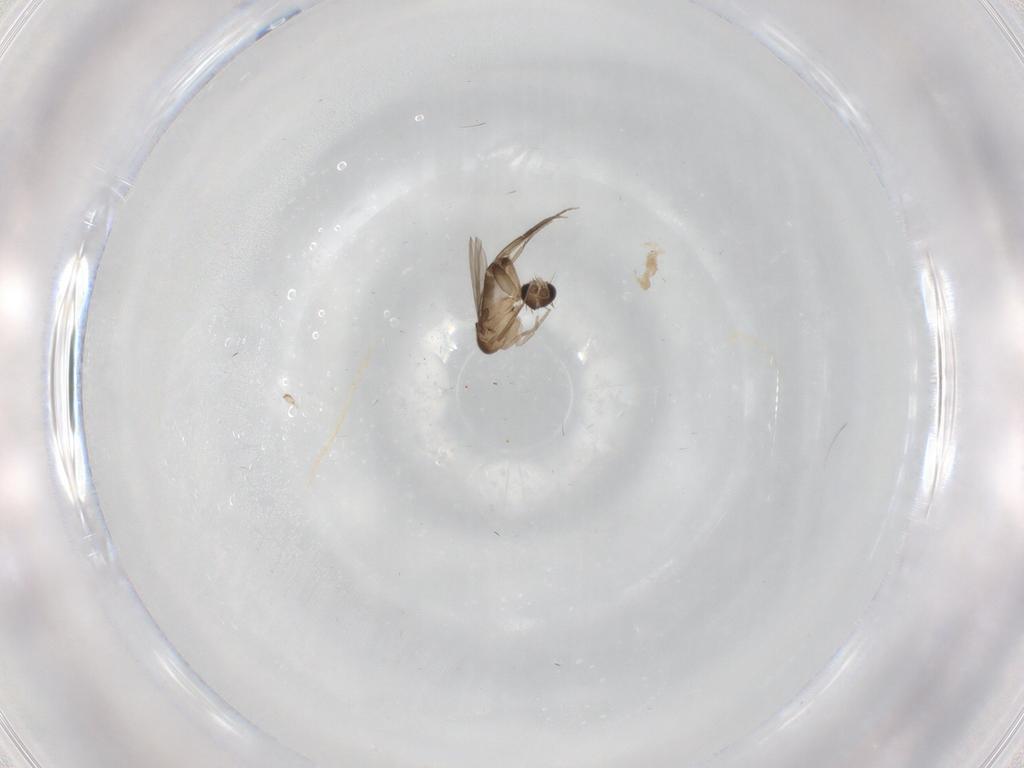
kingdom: Animalia
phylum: Arthropoda
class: Insecta
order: Diptera
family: Phoridae
